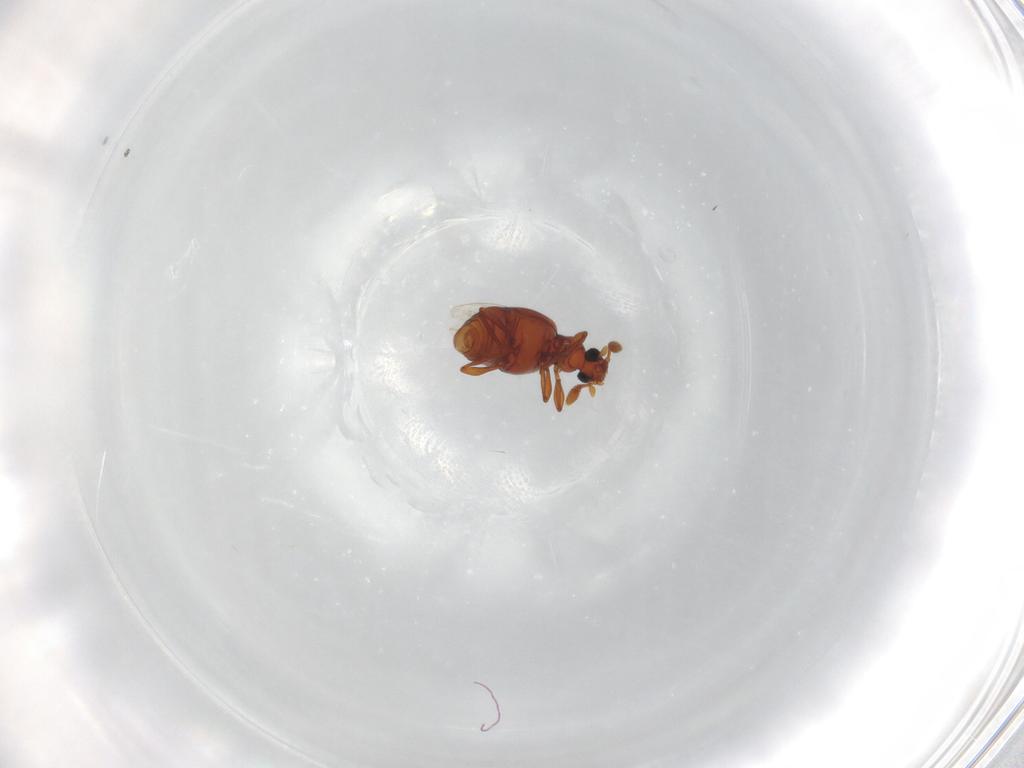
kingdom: Animalia
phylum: Arthropoda
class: Insecta
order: Coleoptera
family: Staphylinidae
